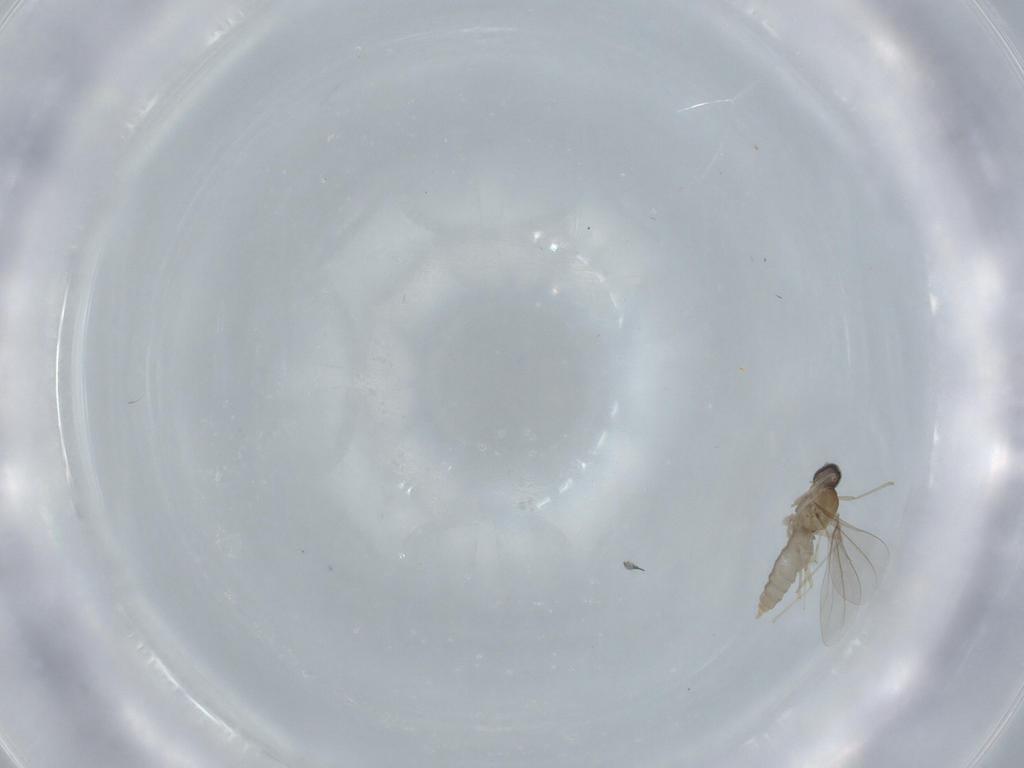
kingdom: Animalia
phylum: Arthropoda
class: Insecta
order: Diptera
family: Cecidomyiidae
